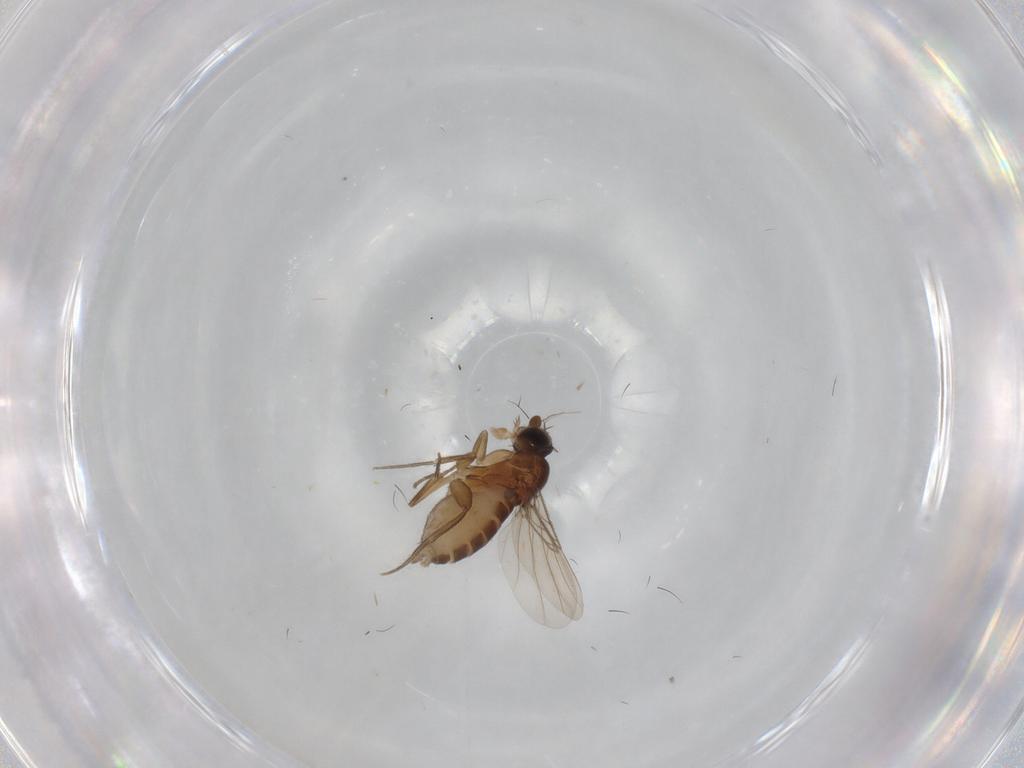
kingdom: Animalia
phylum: Arthropoda
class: Insecta
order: Diptera
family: Phoridae
